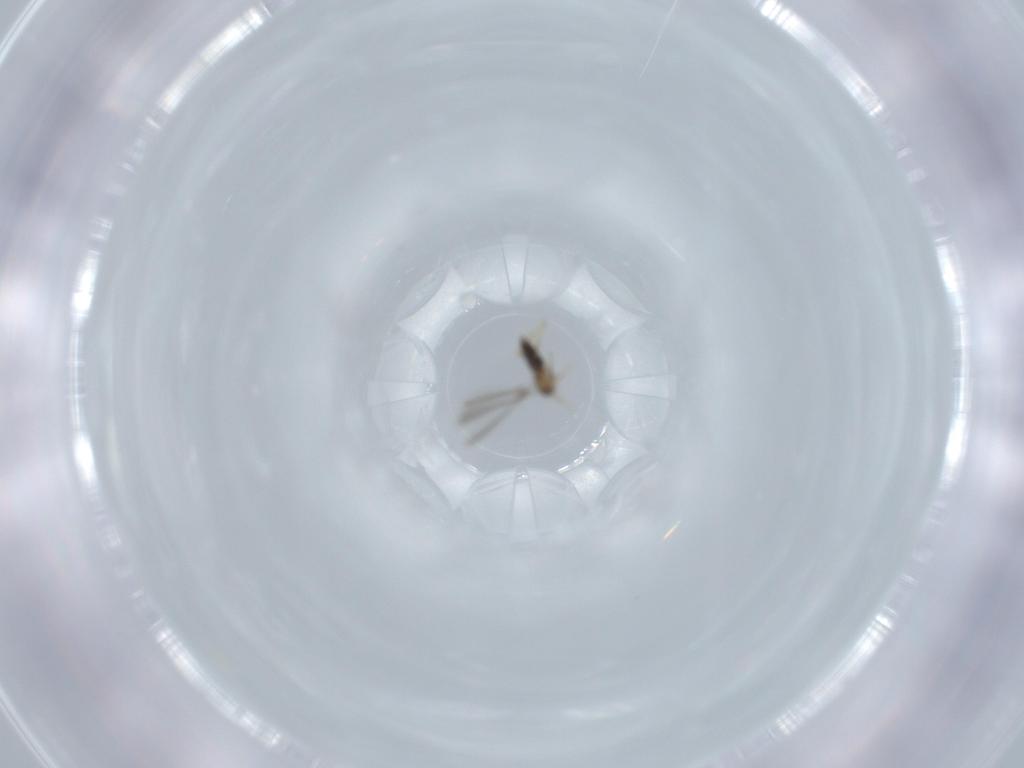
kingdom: Animalia
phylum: Arthropoda
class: Insecta
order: Hymenoptera
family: Mymaridae
